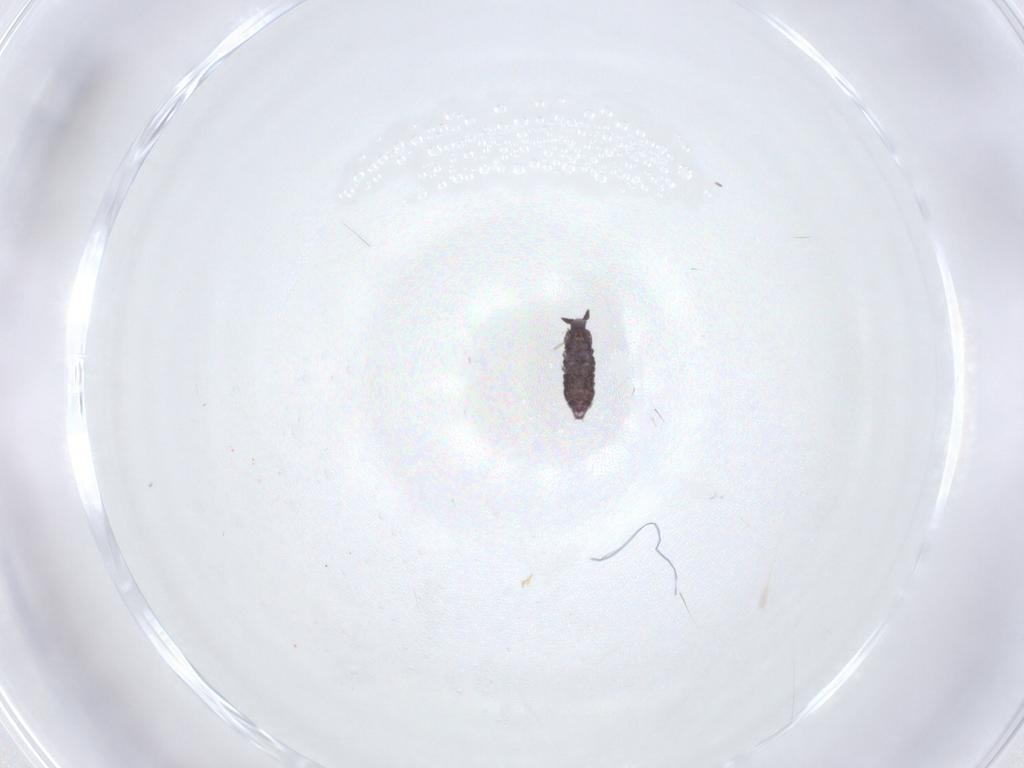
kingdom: Animalia
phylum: Arthropoda
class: Collembola
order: Poduromorpha
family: Hypogastruridae
